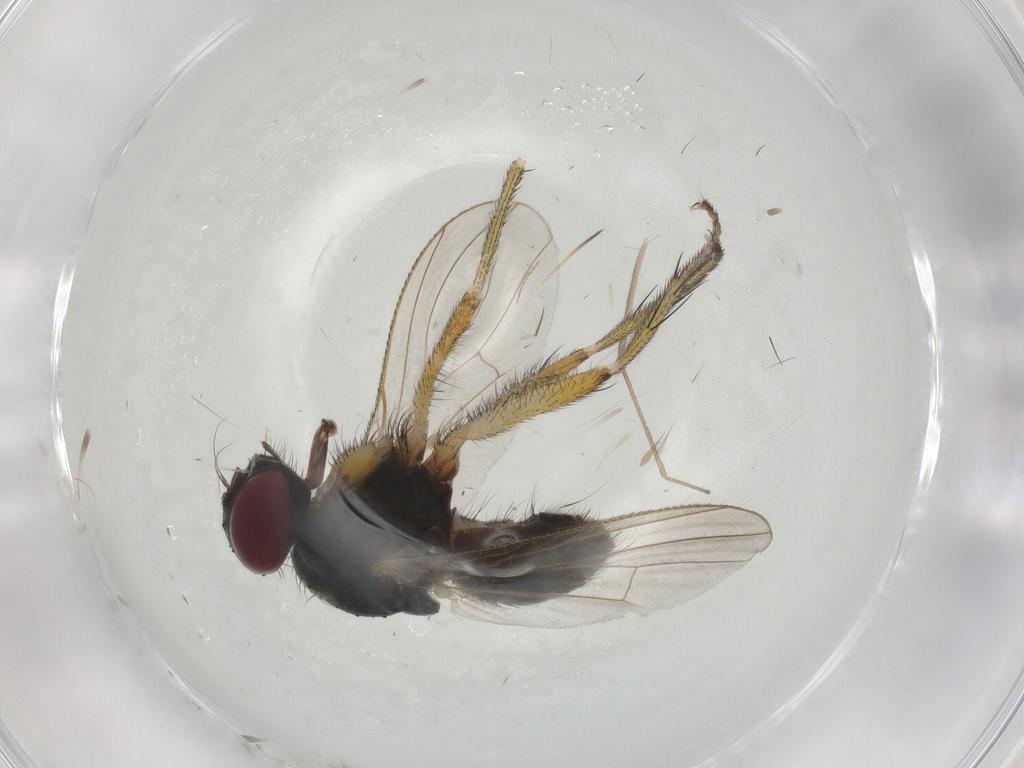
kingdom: Animalia
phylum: Arthropoda
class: Insecta
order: Diptera
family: Muscidae
